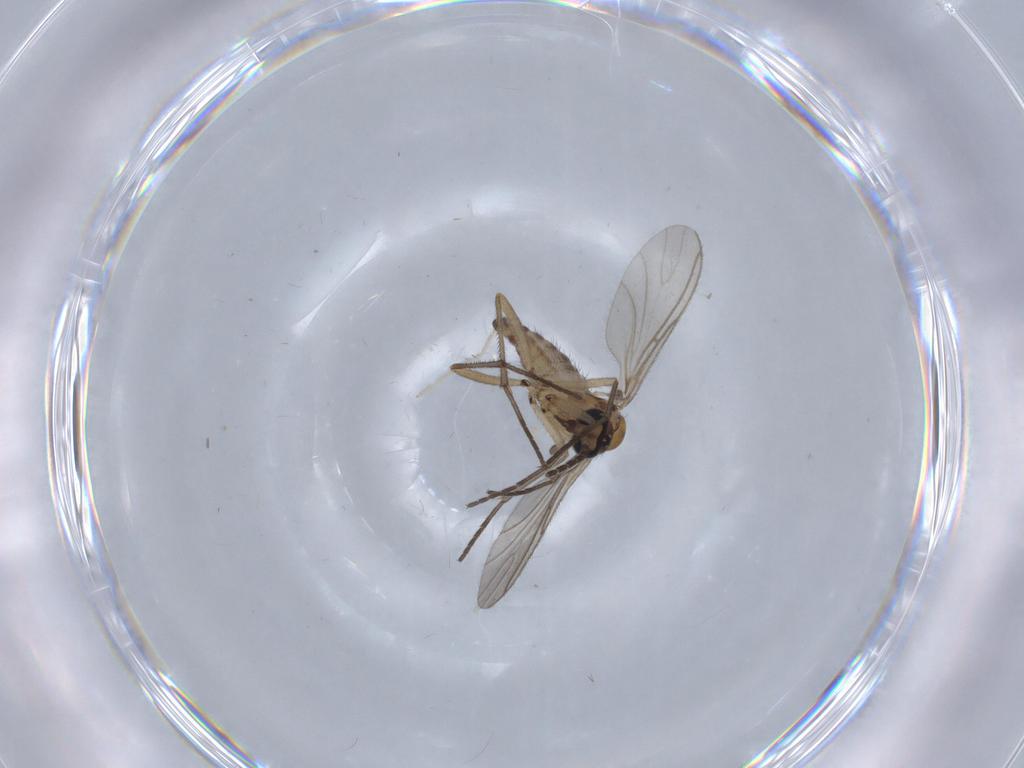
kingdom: Animalia
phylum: Arthropoda
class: Insecta
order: Diptera
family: Sciaridae
